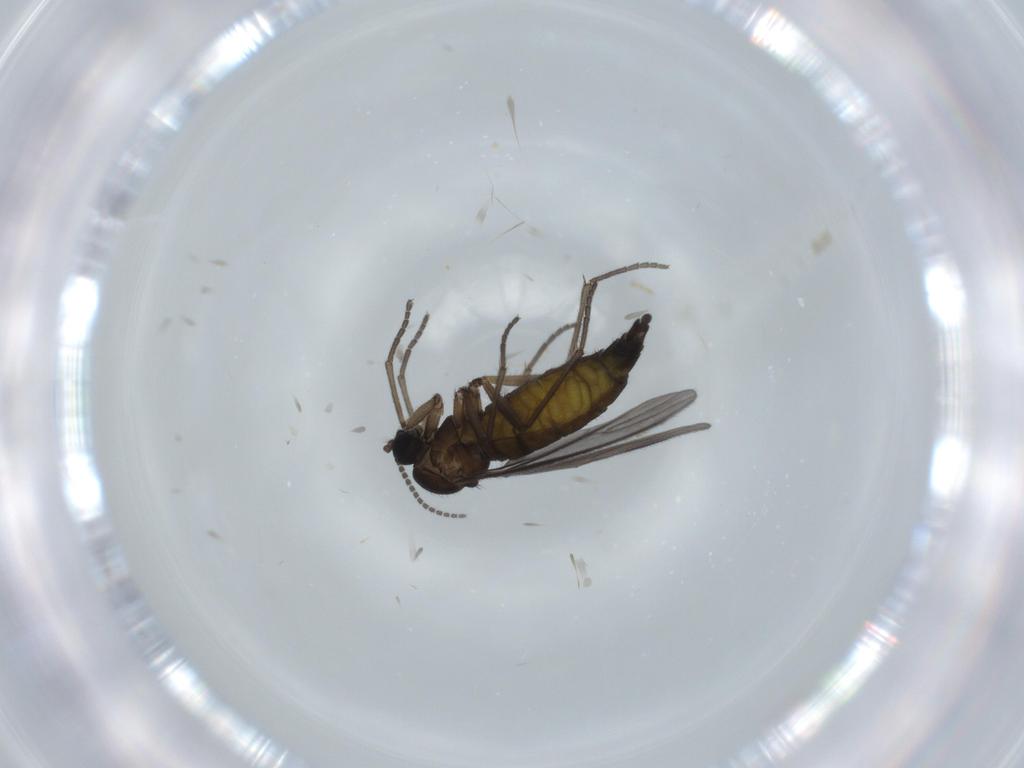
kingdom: Animalia
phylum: Arthropoda
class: Insecta
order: Diptera
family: Sciaridae
